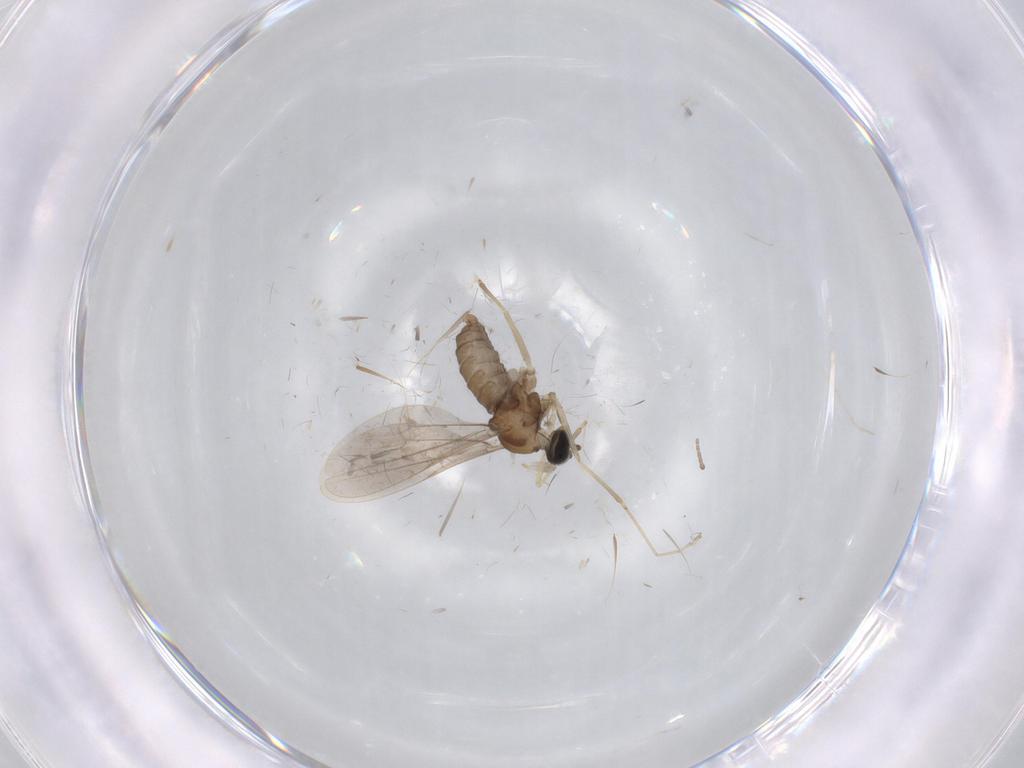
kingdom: Animalia
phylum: Arthropoda
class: Insecta
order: Diptera
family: Cecidomyiidae
